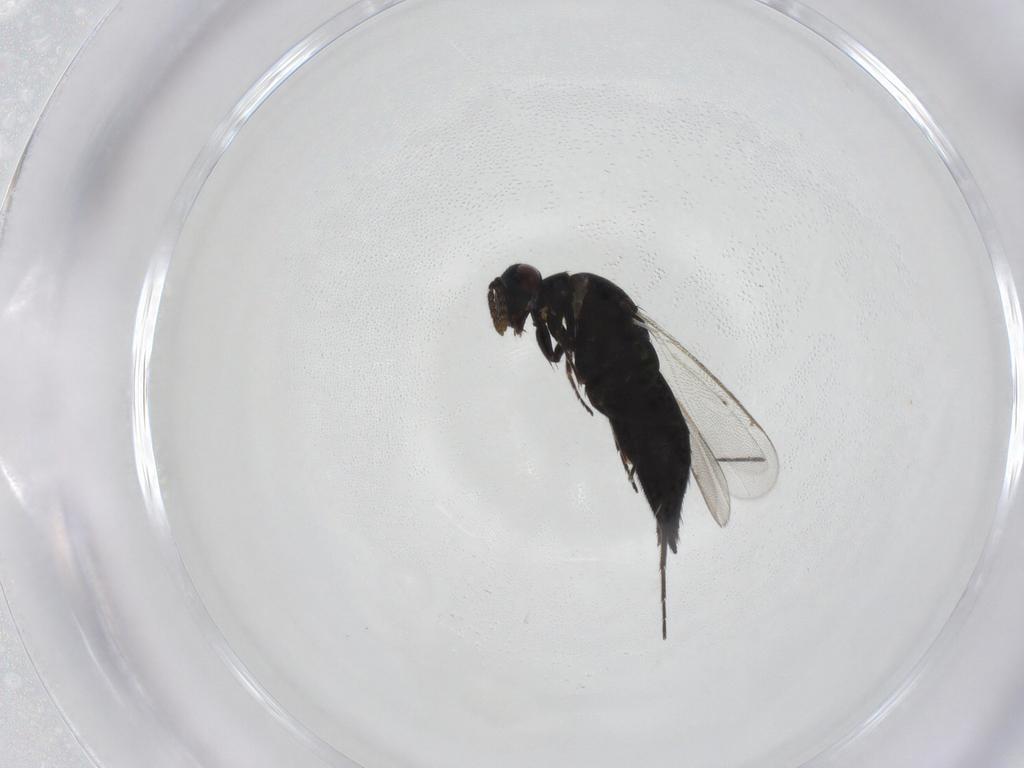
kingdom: Animalia
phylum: Arthropoda
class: Insecta
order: Hymenoptera
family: Eulophidae
